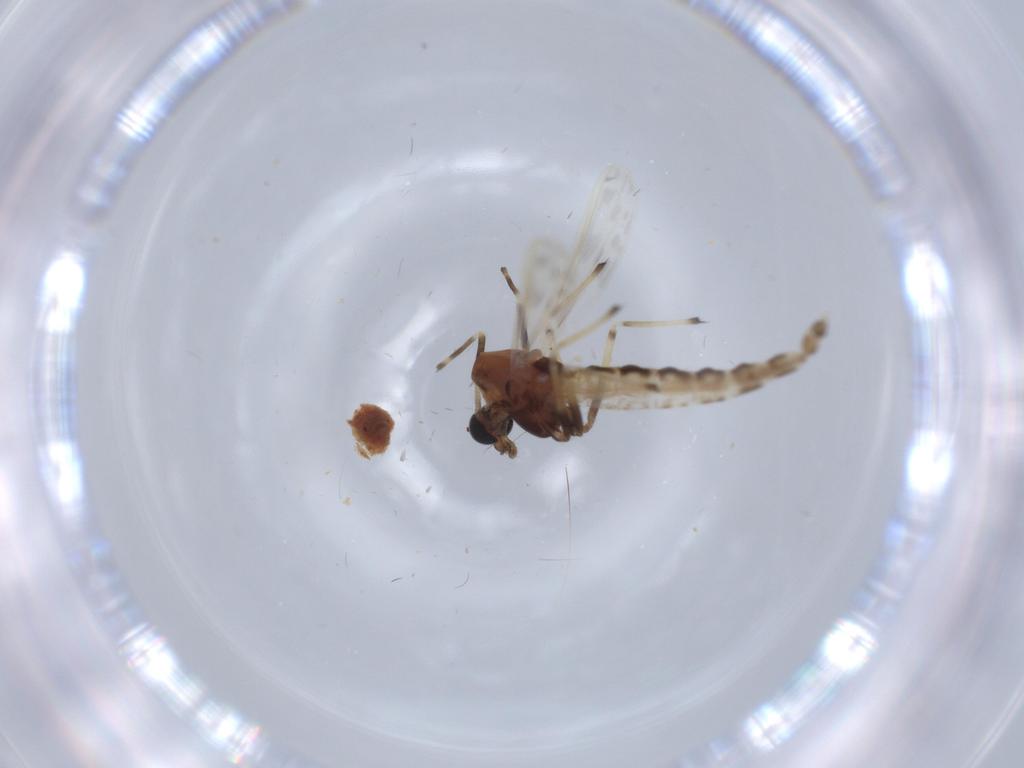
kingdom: Animalia
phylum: Arthropoda
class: Insecta
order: Diptera
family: Chironomidae
